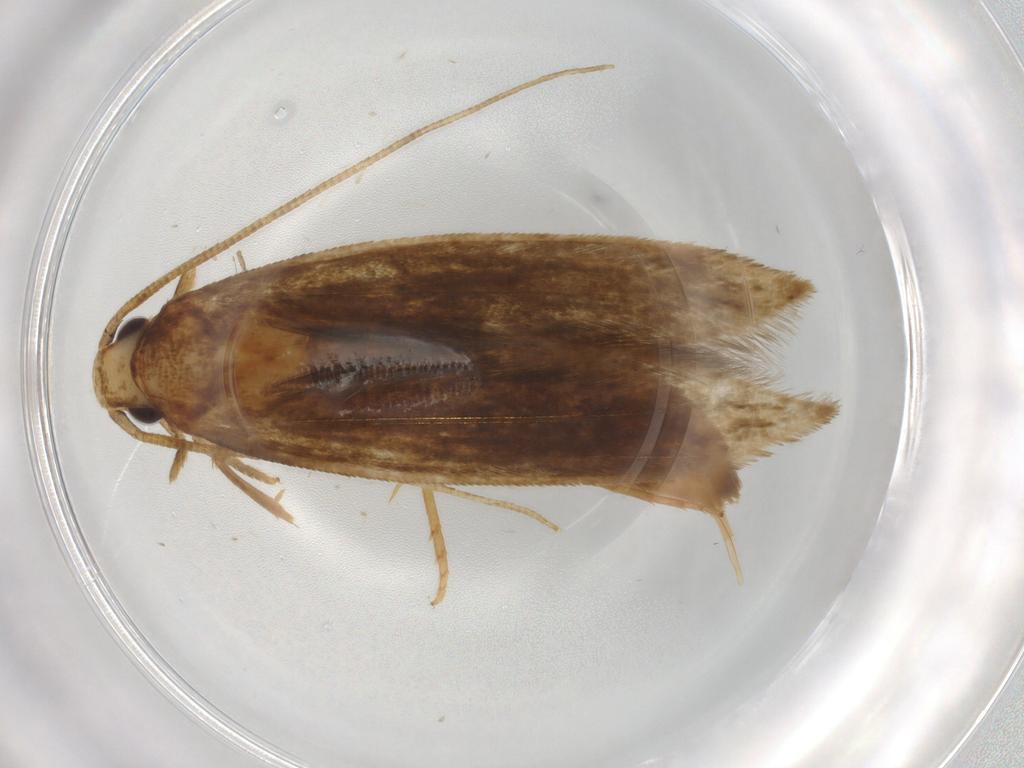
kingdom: Animalia
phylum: Arthropoda
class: Insecta
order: Lepidoptera
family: Tineidae
